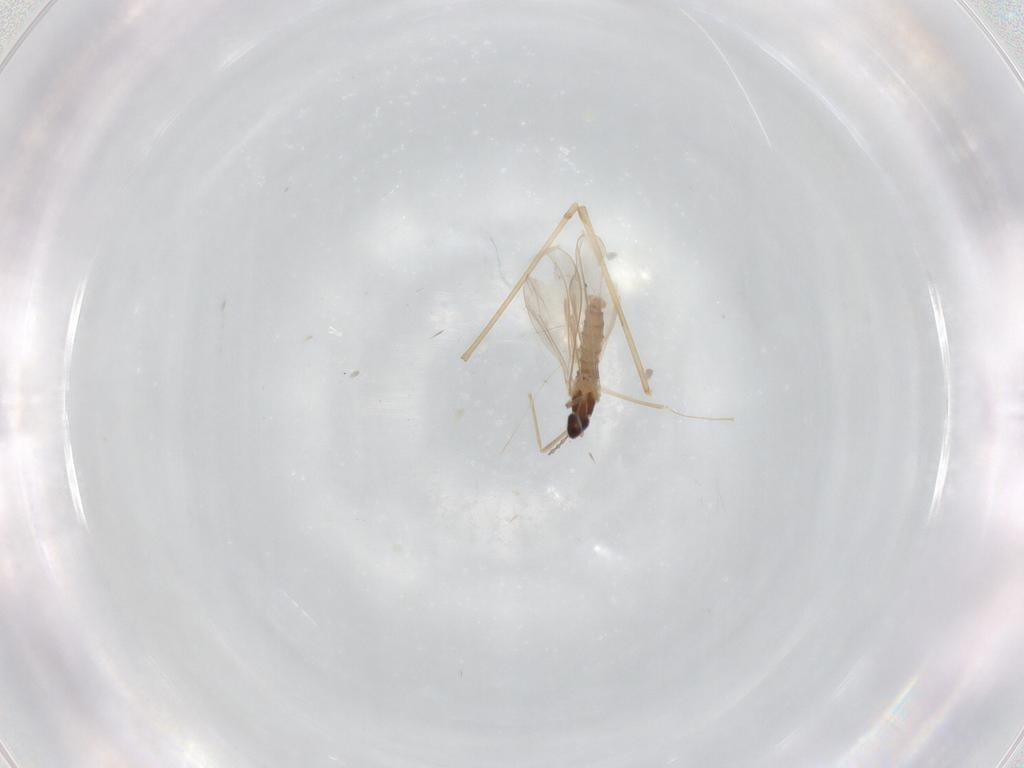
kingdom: Animalia
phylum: Arthropoda
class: Insecta
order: Diptera
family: Cecidomyiidae
